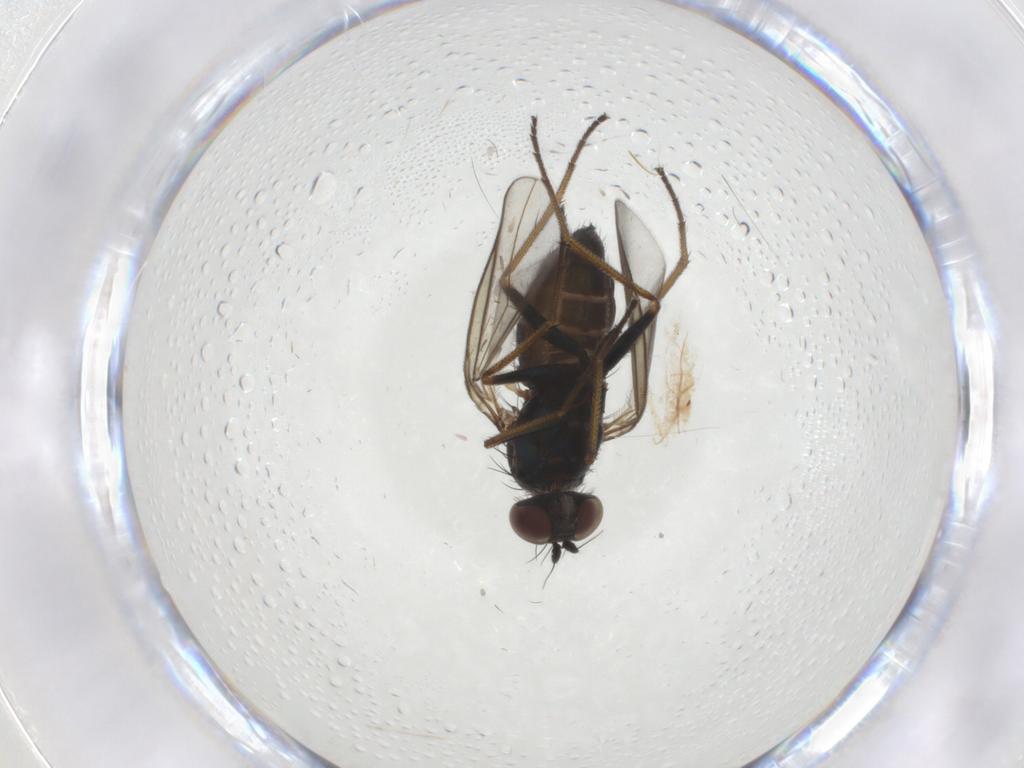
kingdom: Animalia
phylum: Arthropoda
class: Insecta
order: Diptera
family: Dolichopodidae
